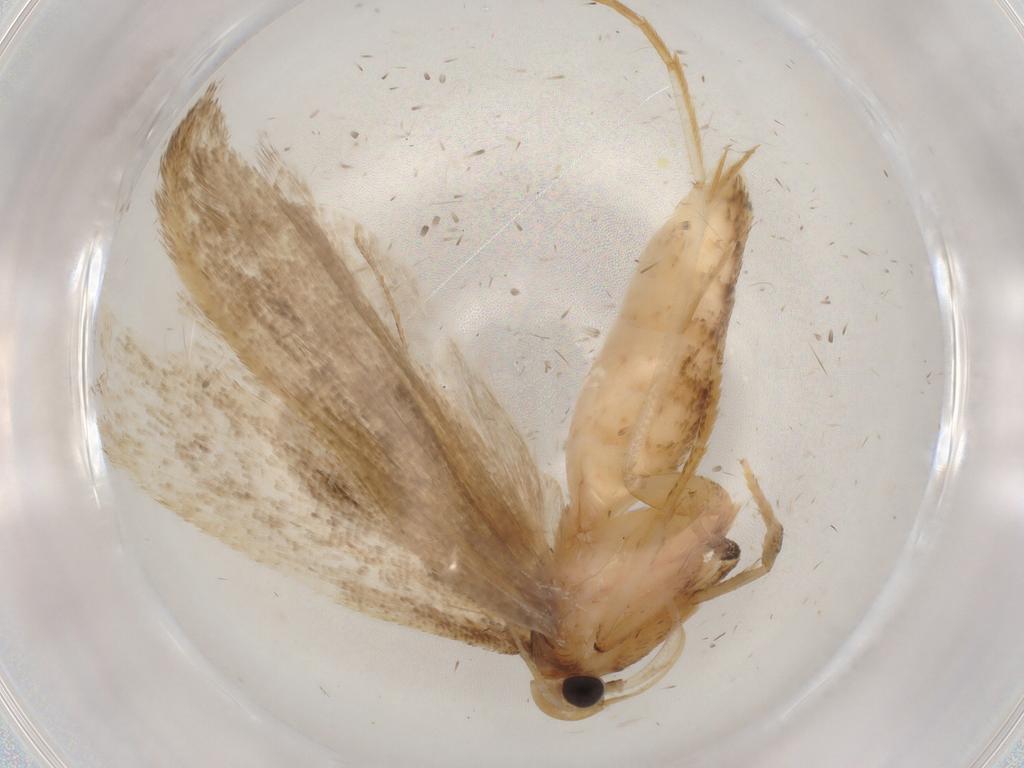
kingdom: Animalia
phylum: Arthropoda
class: Insecta
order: Lepidoptera
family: Gelechiidae
